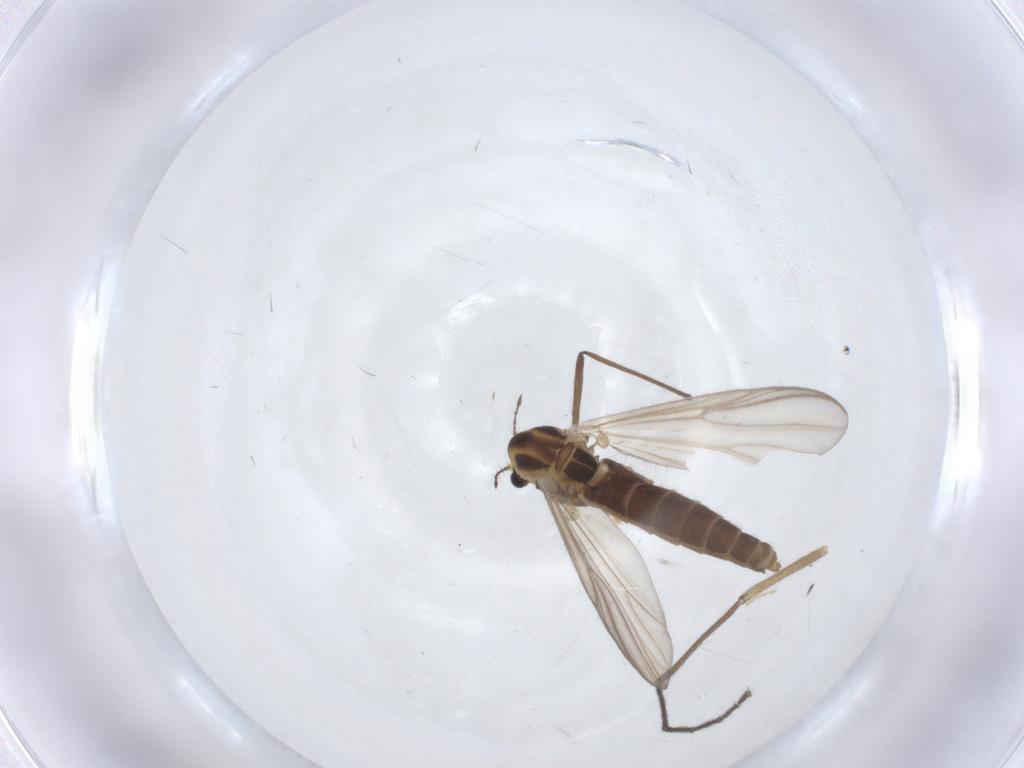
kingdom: Animalia
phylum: Arthropoda
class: Insecta
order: Diptera
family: Chironomidae
